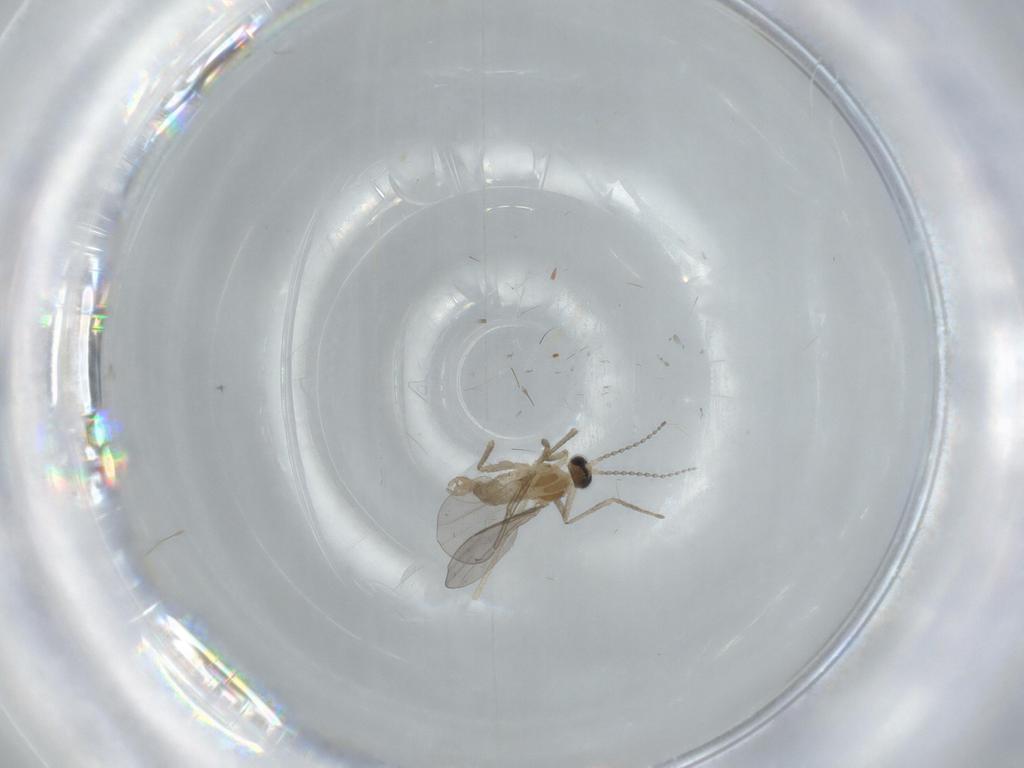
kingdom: Animalia
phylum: Arthropoda
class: Insecta
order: Diptera
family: Cecidomyiidae
